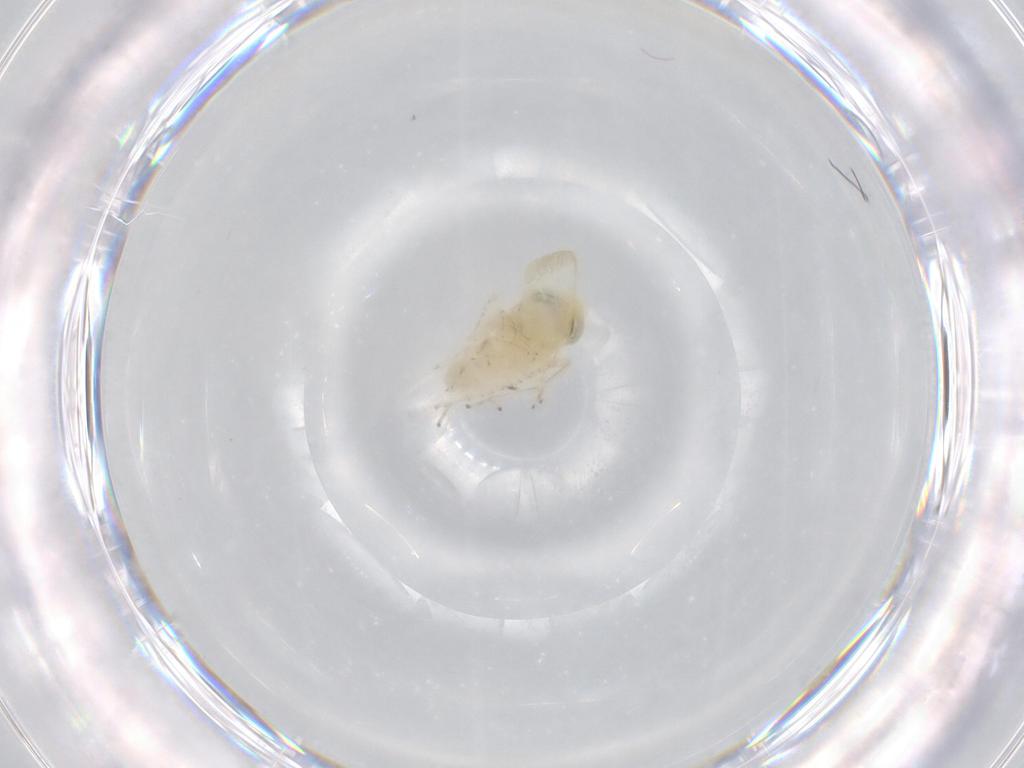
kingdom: Animalia
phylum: Arthropoda
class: Insecta
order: Hemiptera
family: Cicadellidae
